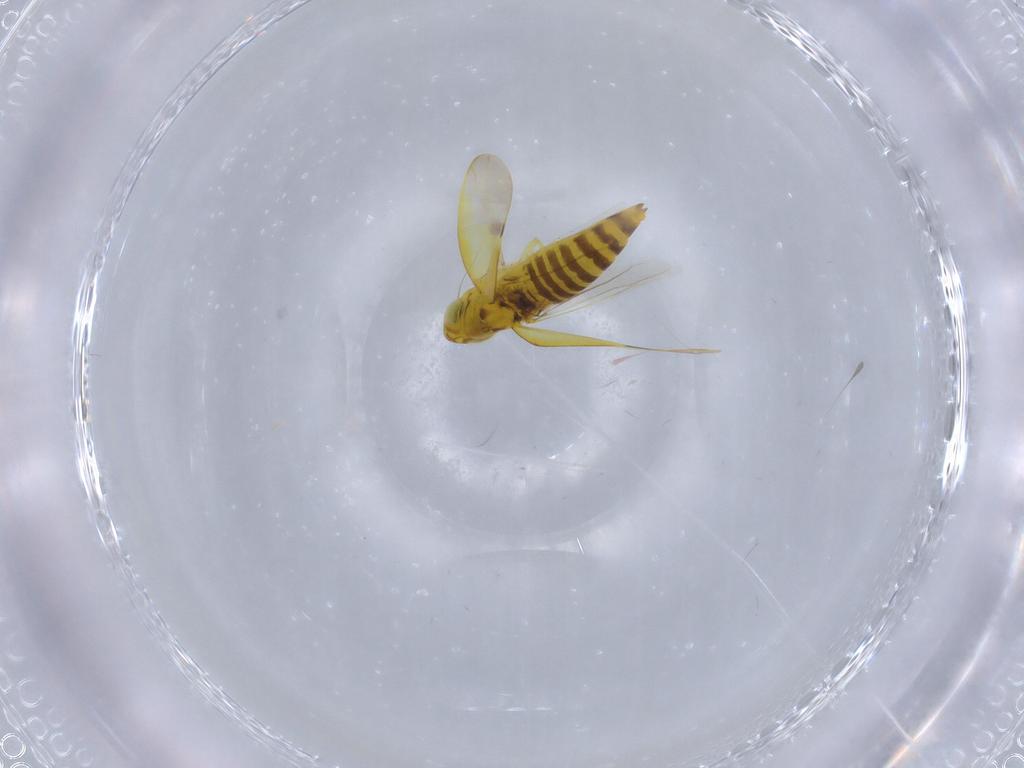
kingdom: Animalia
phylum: Arthropoda
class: Insecta
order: Hemiptera
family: Cicadellidae
